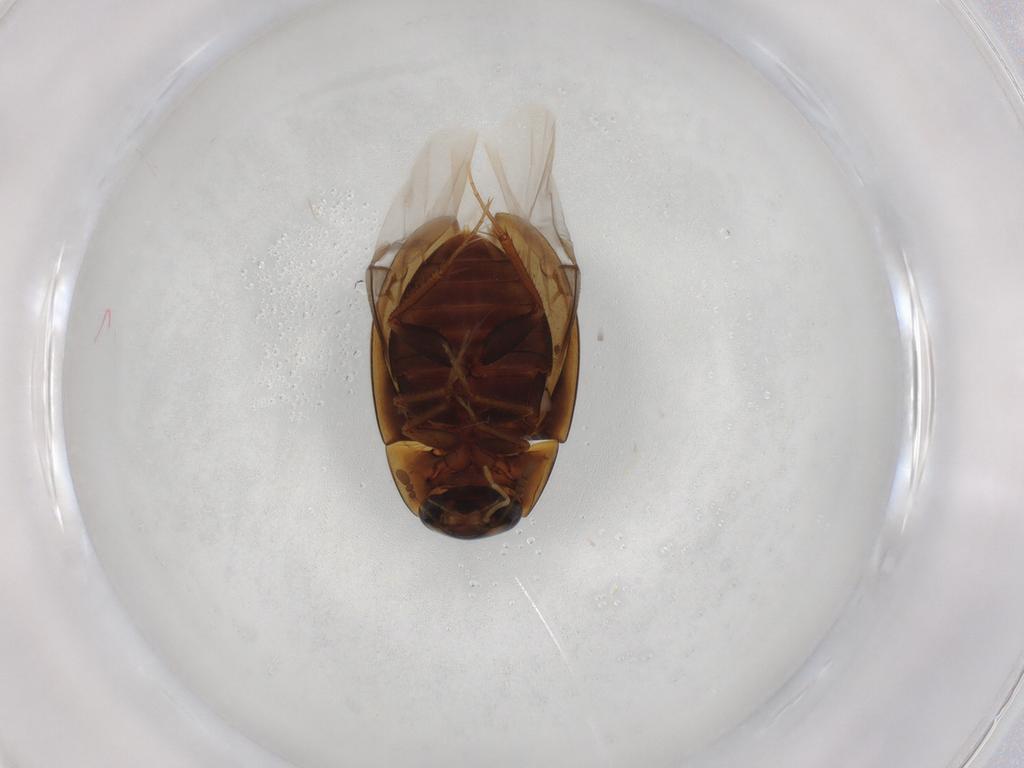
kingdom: Animalia
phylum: Arthropoda
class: Insecta
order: Coleoptera
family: Hydrophilidae
